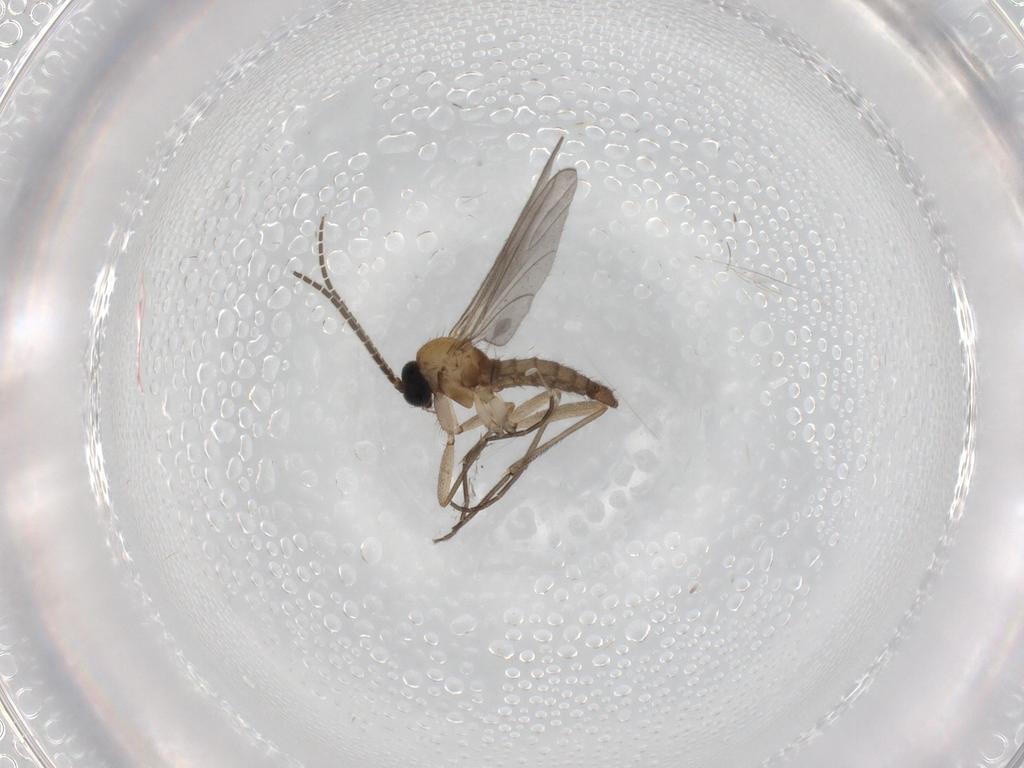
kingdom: Animalia
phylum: Arthropoda
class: Insecta
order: Diptera
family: Sciaridae
